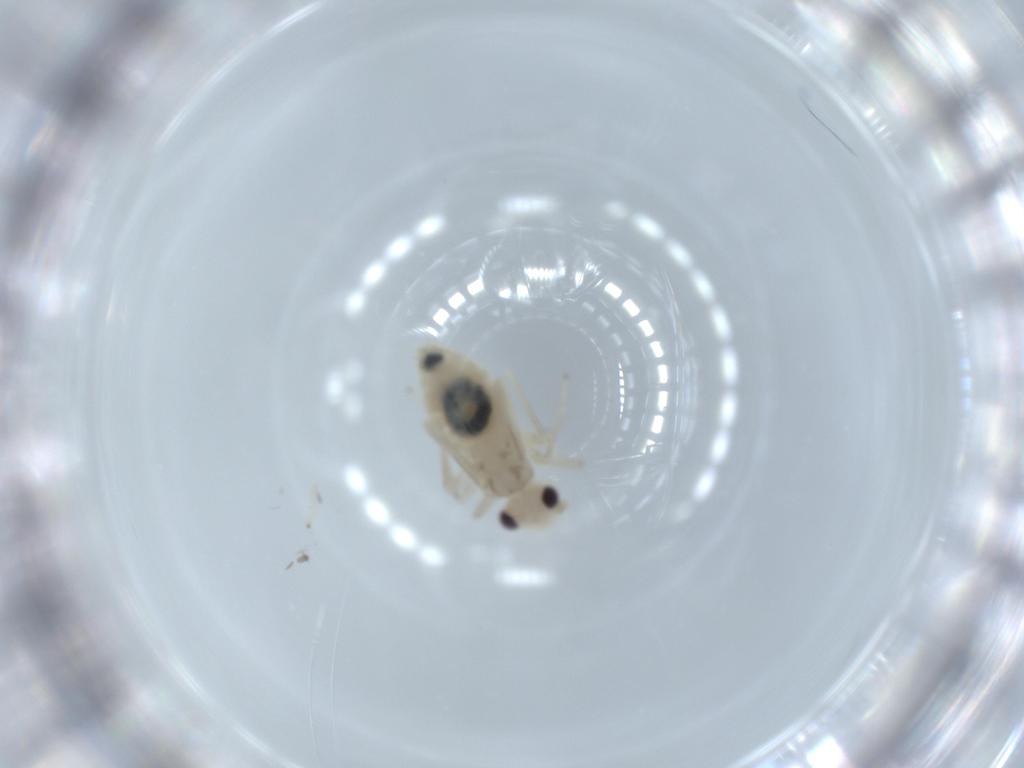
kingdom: Animalia
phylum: Arthropoda
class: Insecta
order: Psocodea
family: Caeciliusidae
